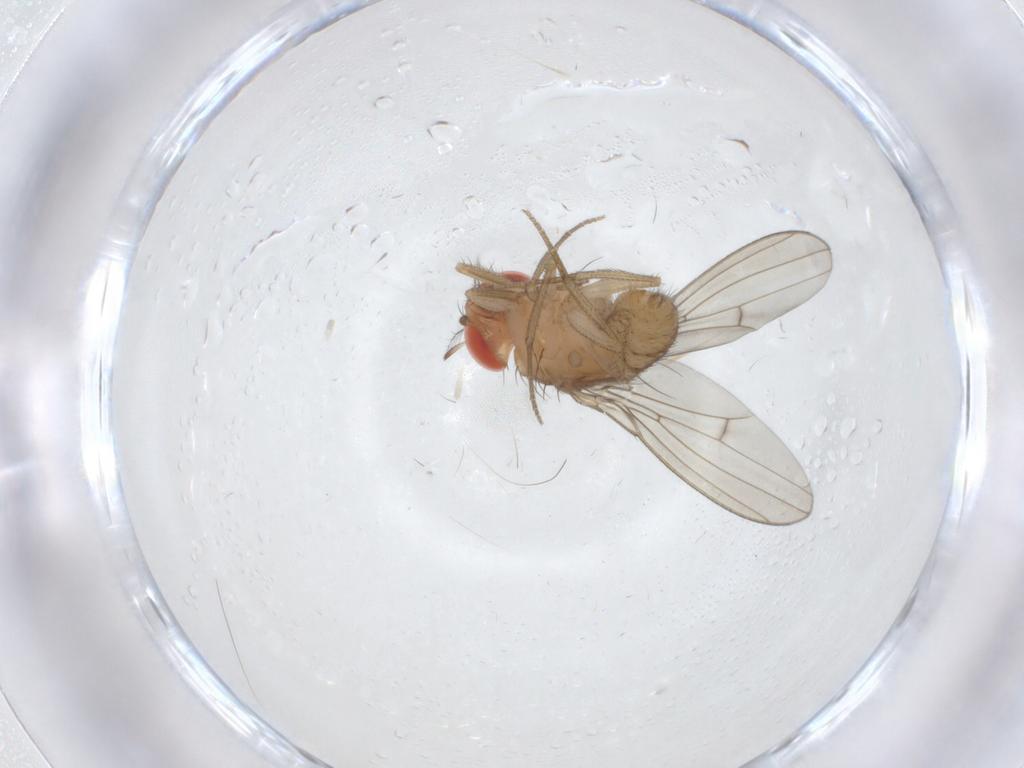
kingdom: Animalia
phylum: Arthropoda
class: Insecta
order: Diptera
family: Drosophilidae
